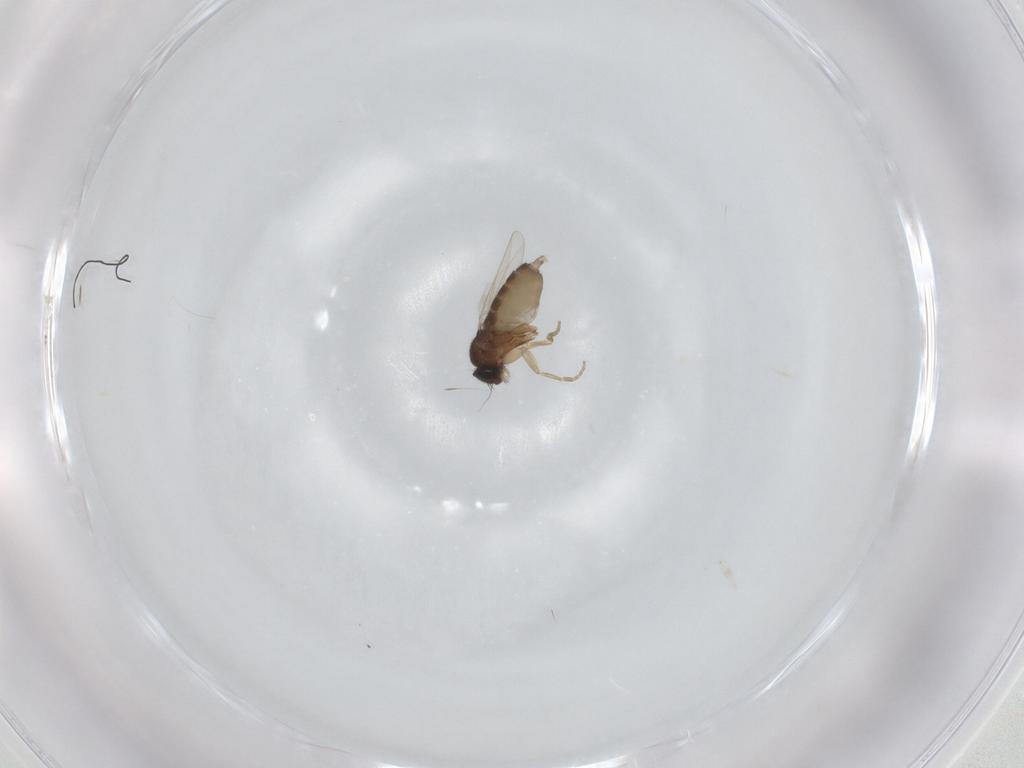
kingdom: Animalia
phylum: Arthropoda
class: Insecta
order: Diptera
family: Phoridae
